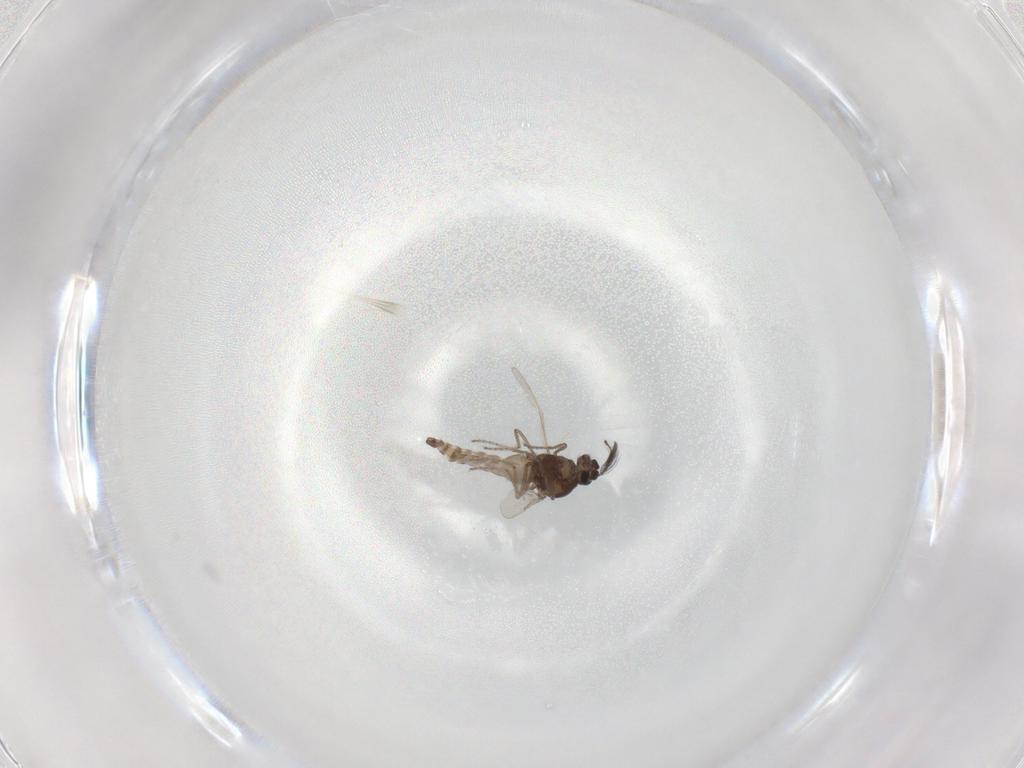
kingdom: Animalia
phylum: Arthropoda
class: Insecta
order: Diptera
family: Ceratopogonidae
